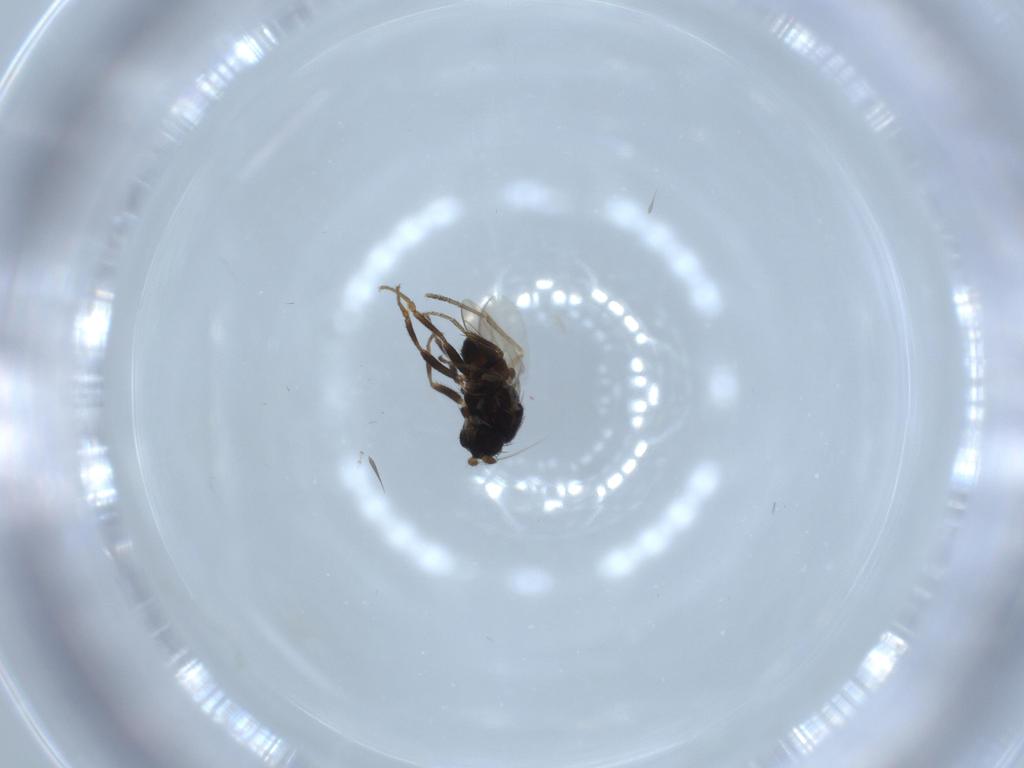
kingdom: Animalia
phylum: Arthropoda
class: Insecta
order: Diptera
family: Sphaeroceridae
